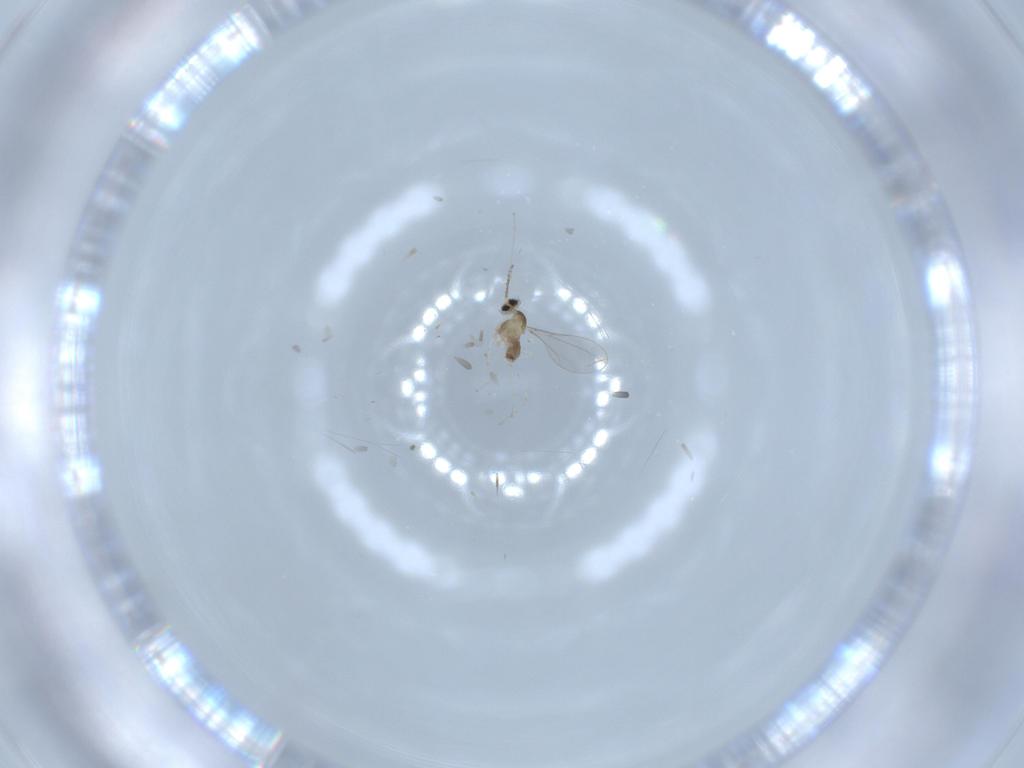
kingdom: Animalia
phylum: Arthropoda
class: Insecta
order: Diptera
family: Cecidomyiidae
